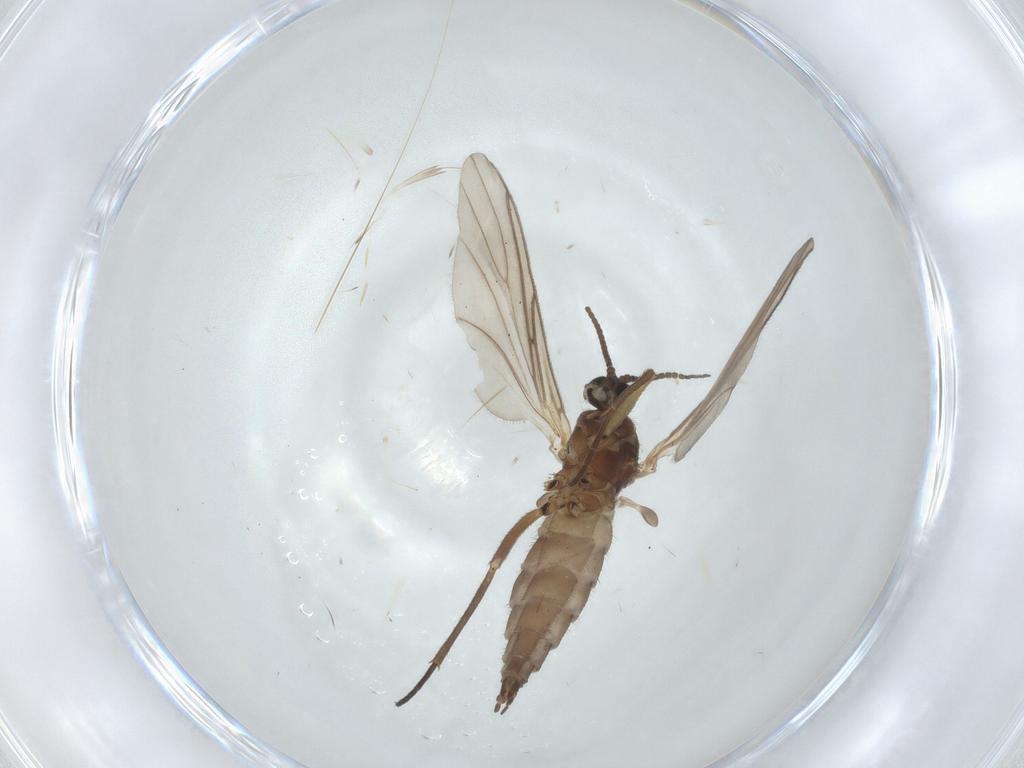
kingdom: Animalia
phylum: Arthropoda
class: Insecta
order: Diptera
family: Sciaridae
